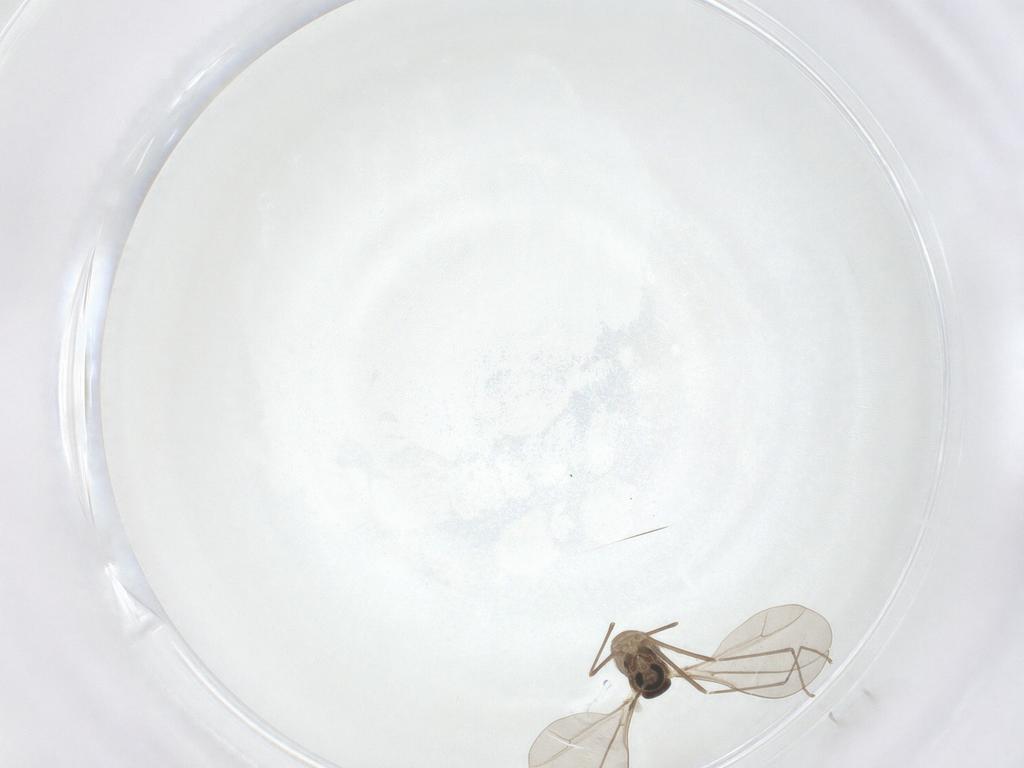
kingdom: Animalia
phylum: Arthropoda
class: Insecta
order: Diptera
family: Cecidomyiidae
